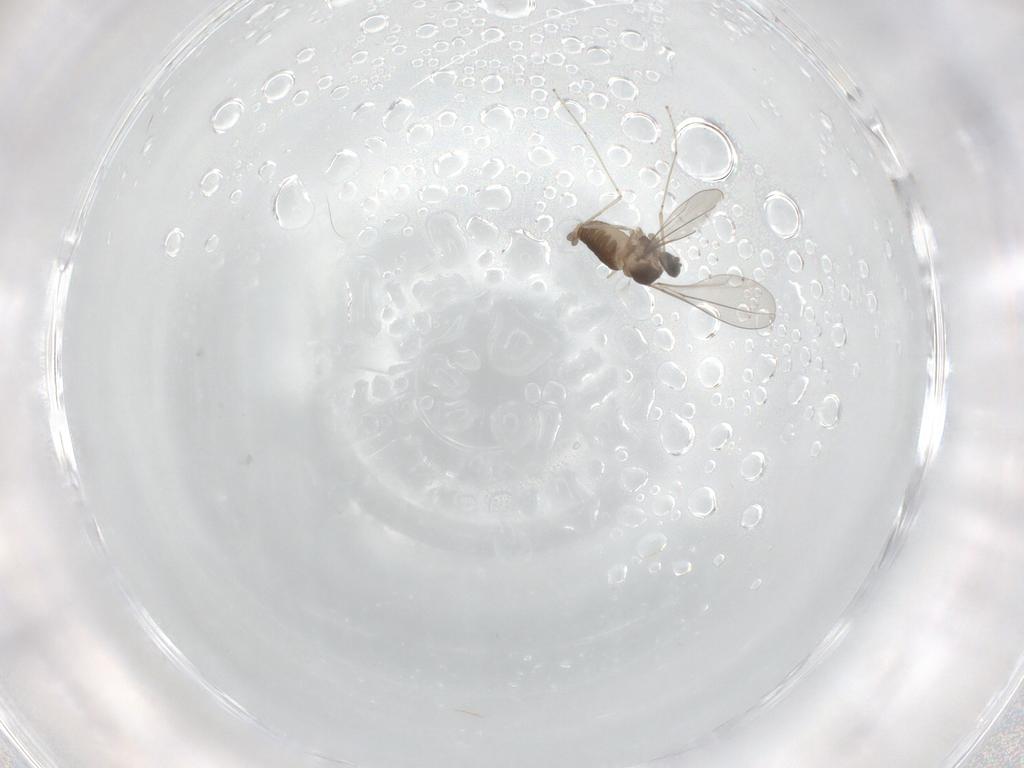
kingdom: Animalia
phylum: Arthropoda
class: Insecta
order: Diptera
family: Cecidomyiidae
